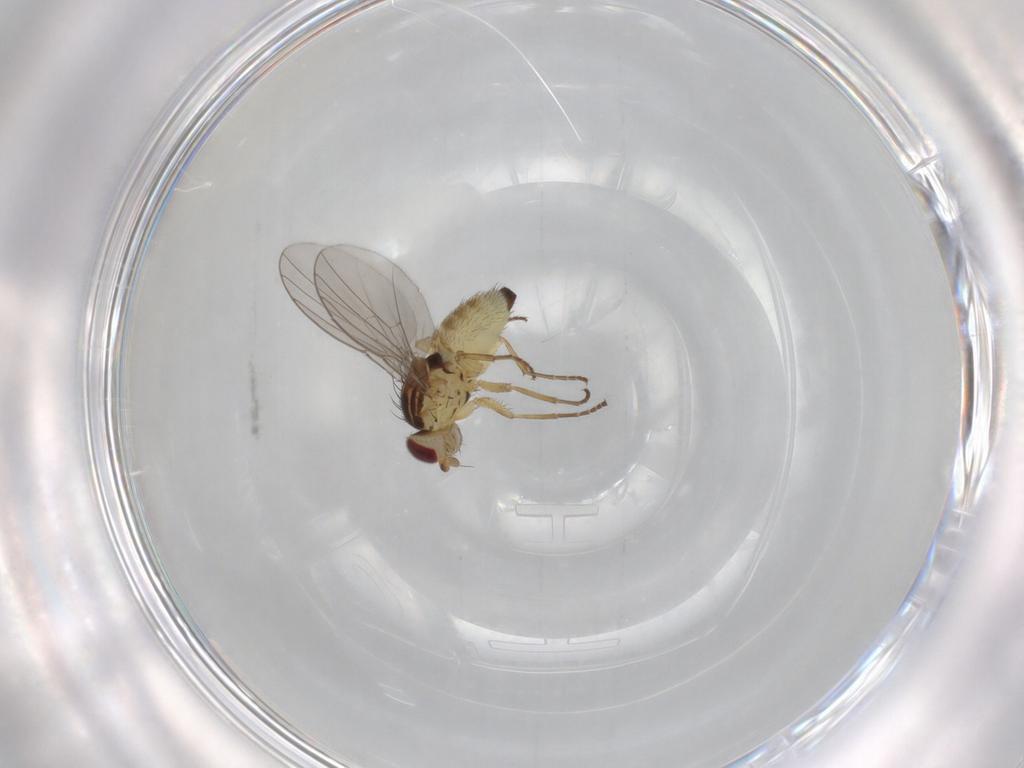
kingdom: Animalia
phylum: Arthropoda
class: Insecta
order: Diptera
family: Agromyzidae
